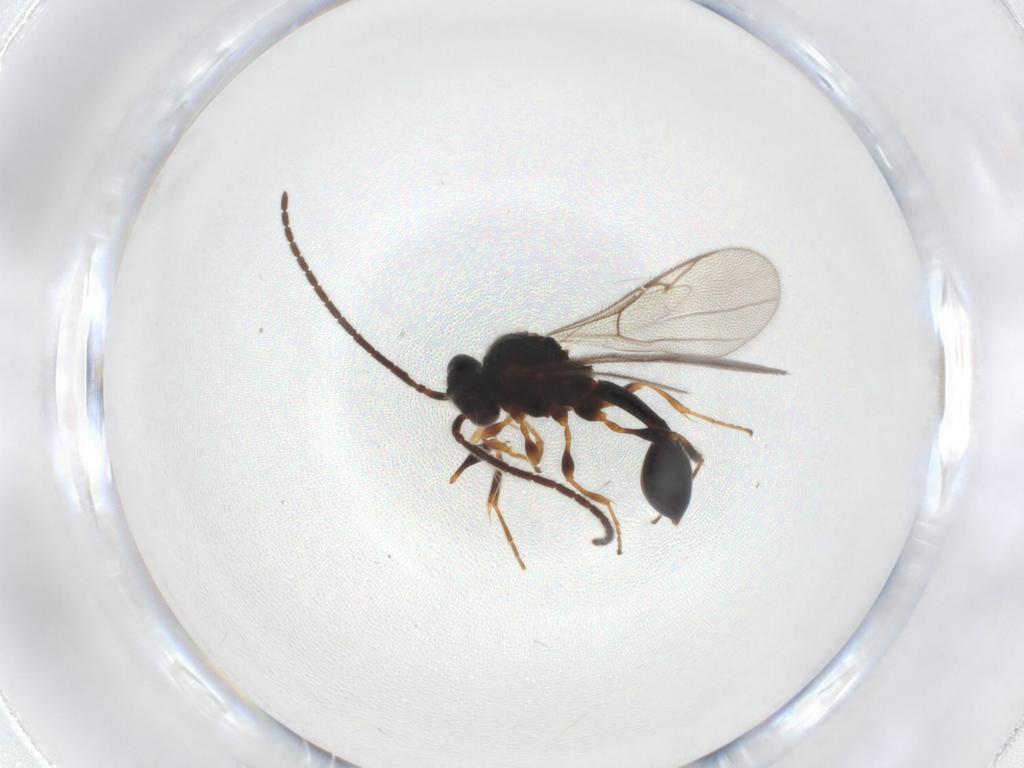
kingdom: Animalia
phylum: Arthropoda
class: Insecta
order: Hymenoptera
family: Diapriidae
